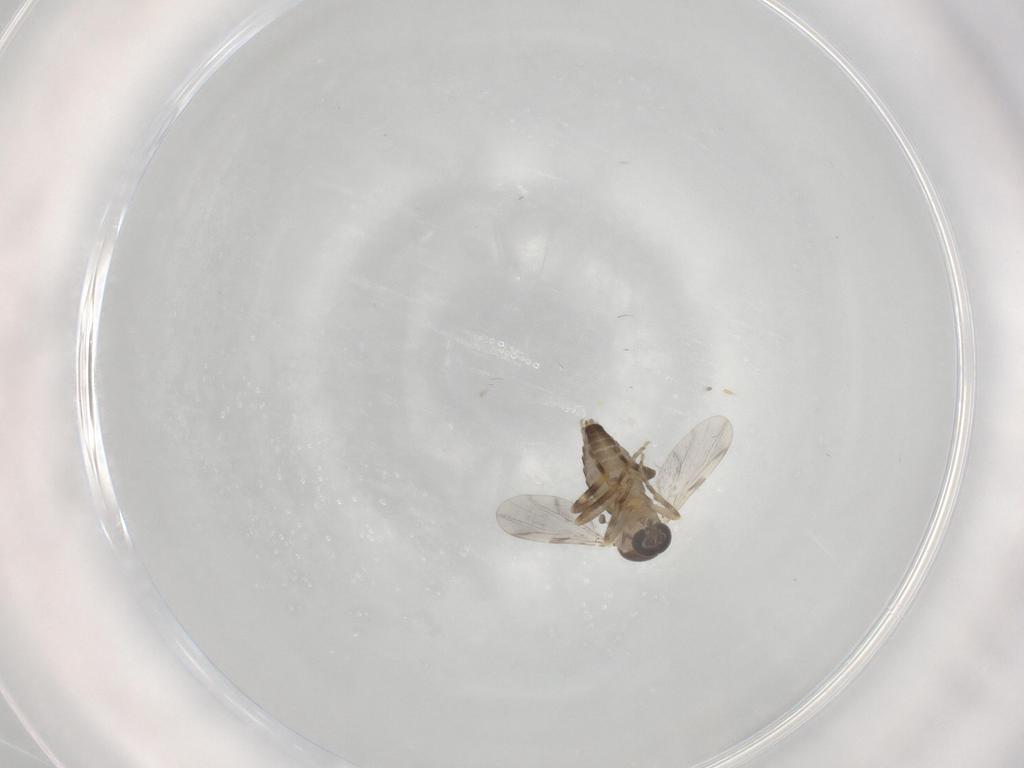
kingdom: Animalia
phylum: Arthropoda
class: Insecta
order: Diptera
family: Ceratopogonidae
